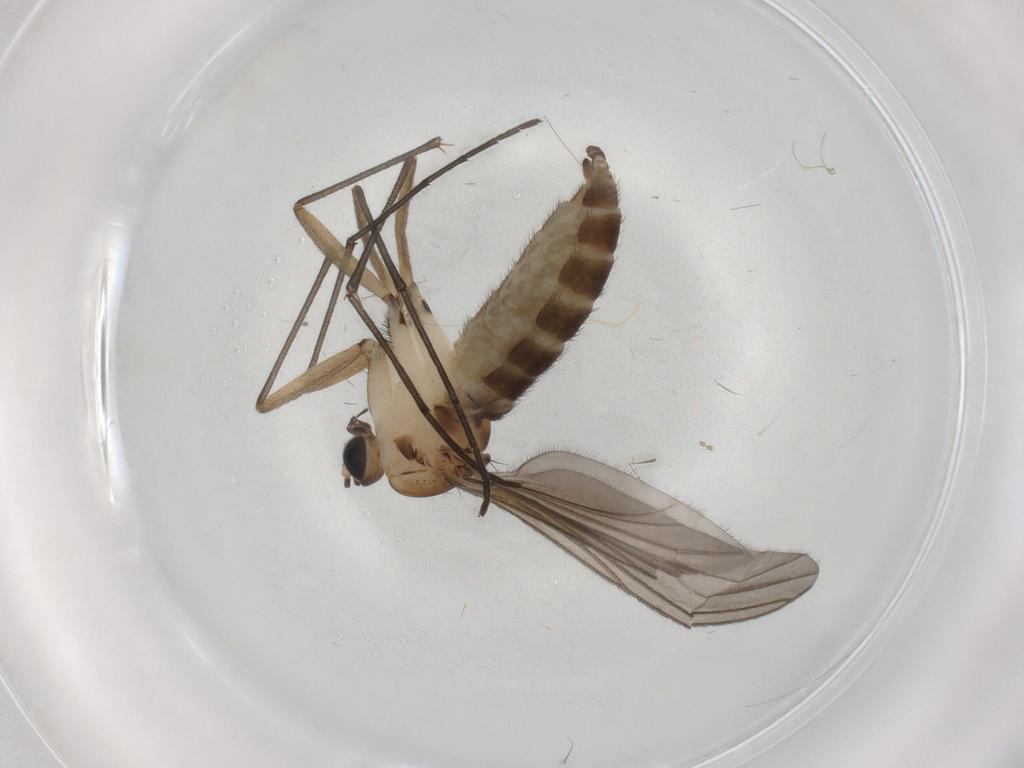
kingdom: Animalia
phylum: Arthropoda
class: Insecta
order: Diptera
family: Sciaridae
